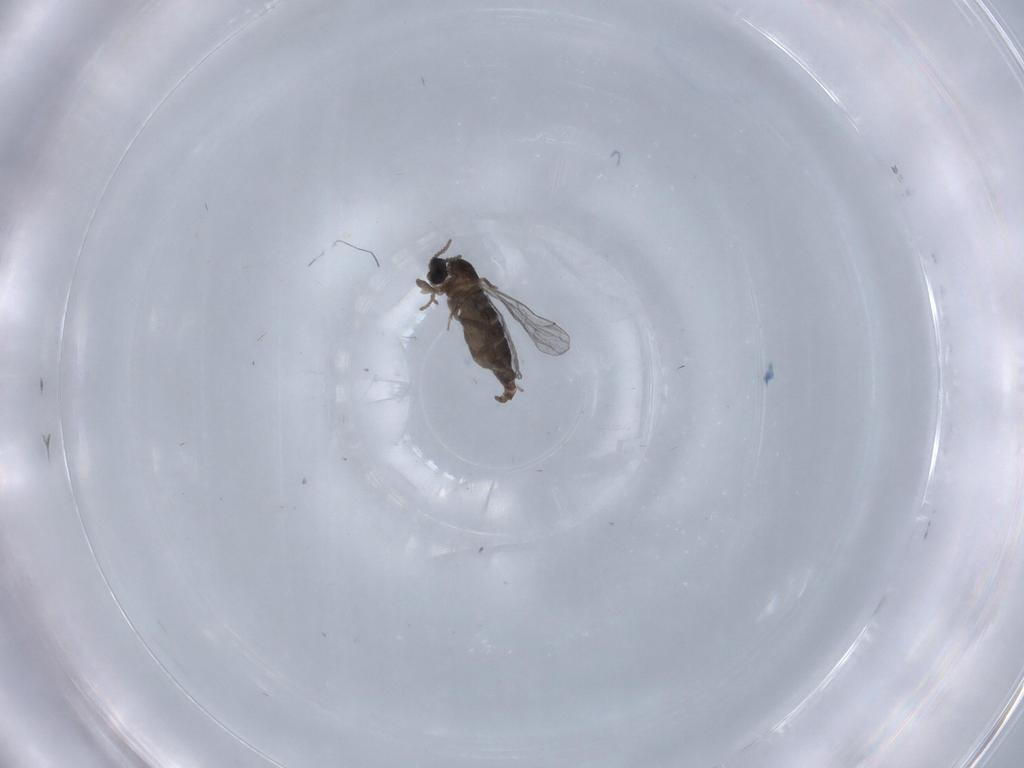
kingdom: Animalia
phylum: Arthropoda
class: Insecta
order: Diptera
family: Chironomidae
